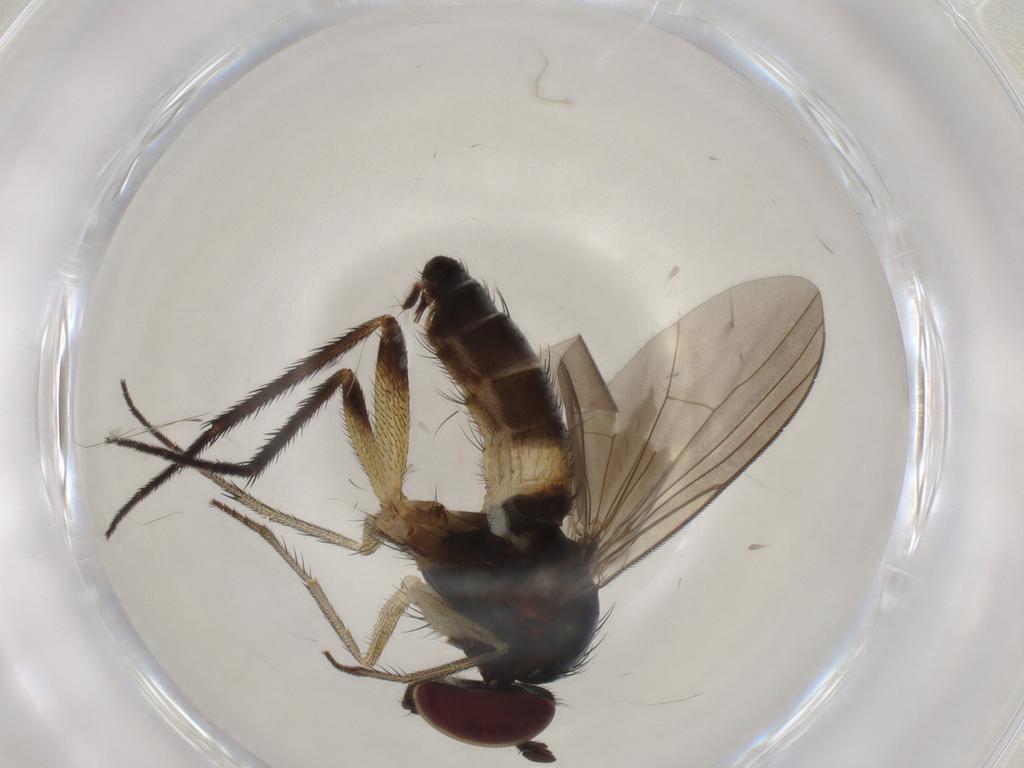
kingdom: Animalia
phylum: Arthropoda
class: Insecta
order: Diptera
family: Dolichopodidae
